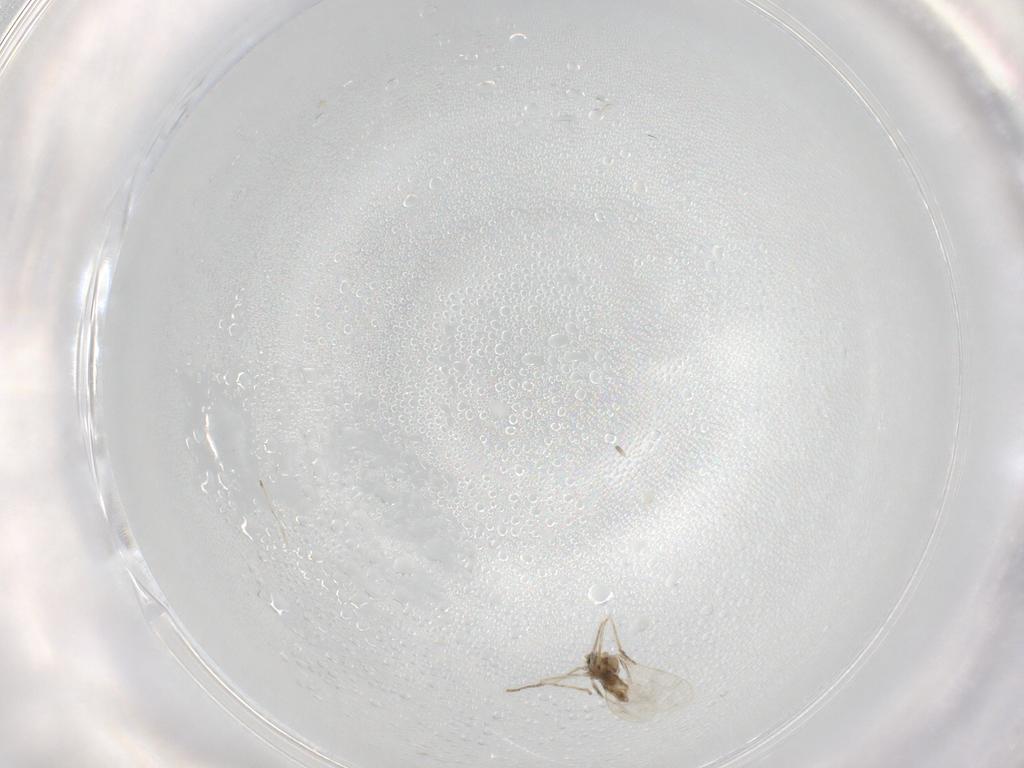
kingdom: Animalia
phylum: Arthropoda
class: Insecta
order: Diptera
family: Cecidomyiidae
